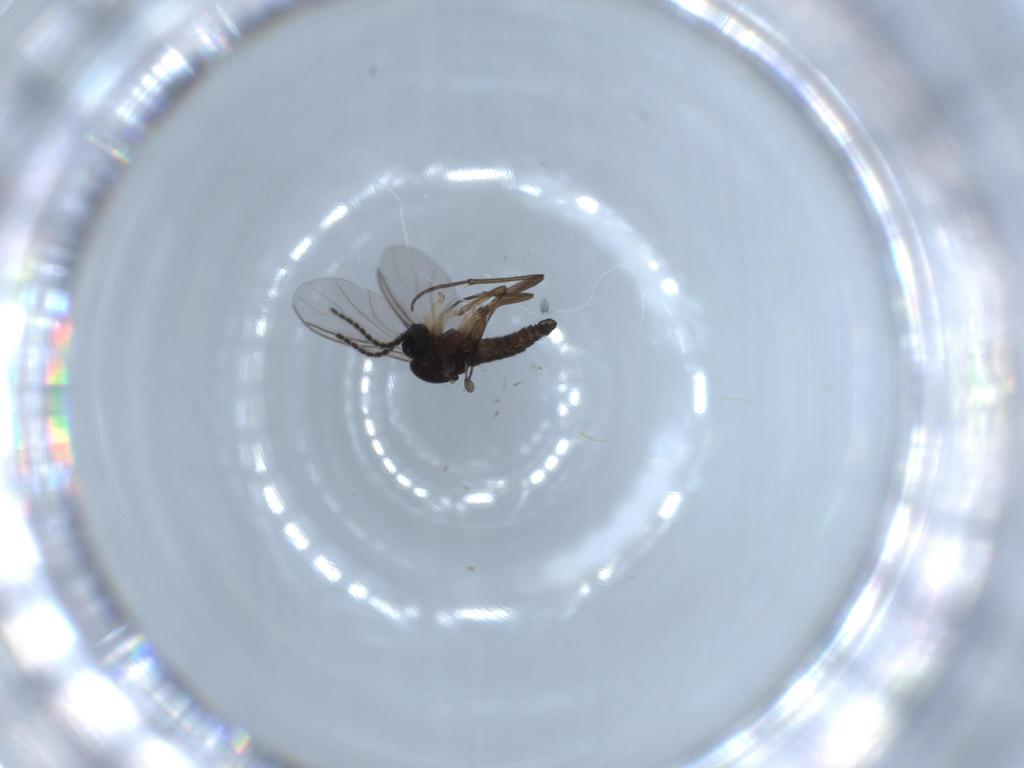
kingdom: Animalia
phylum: Arthropoda
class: Insecta
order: Diptera
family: Sciaridae
